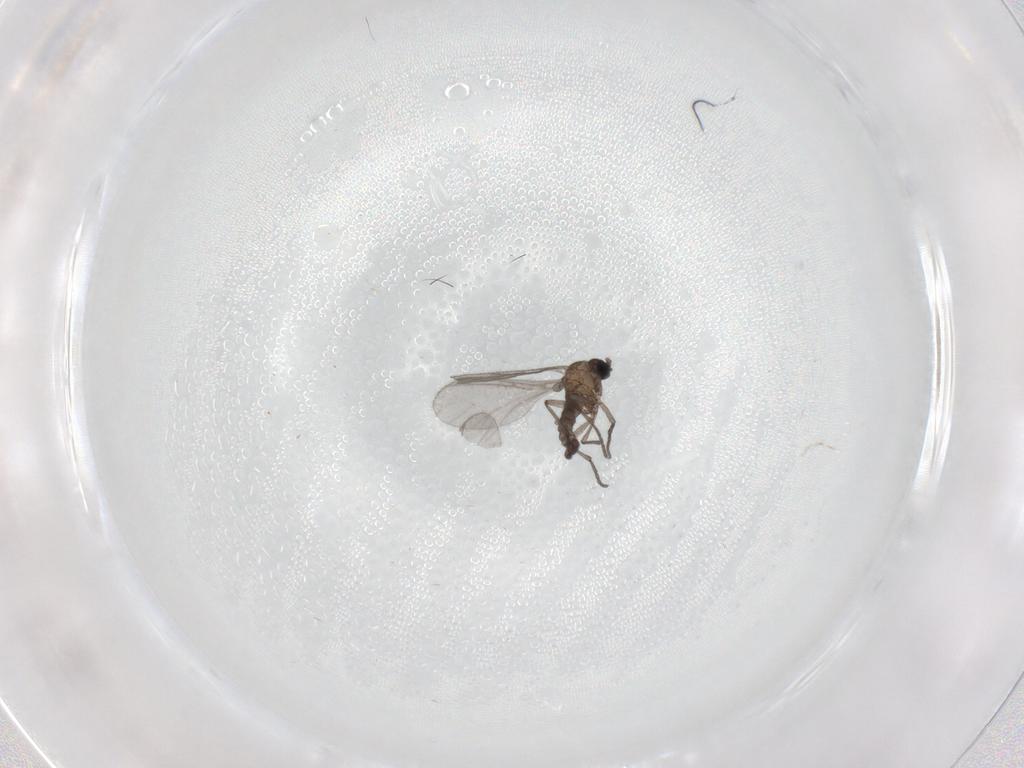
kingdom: Animalia
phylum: Arthropoda
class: Insecta
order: Diptera
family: Sciaridae
